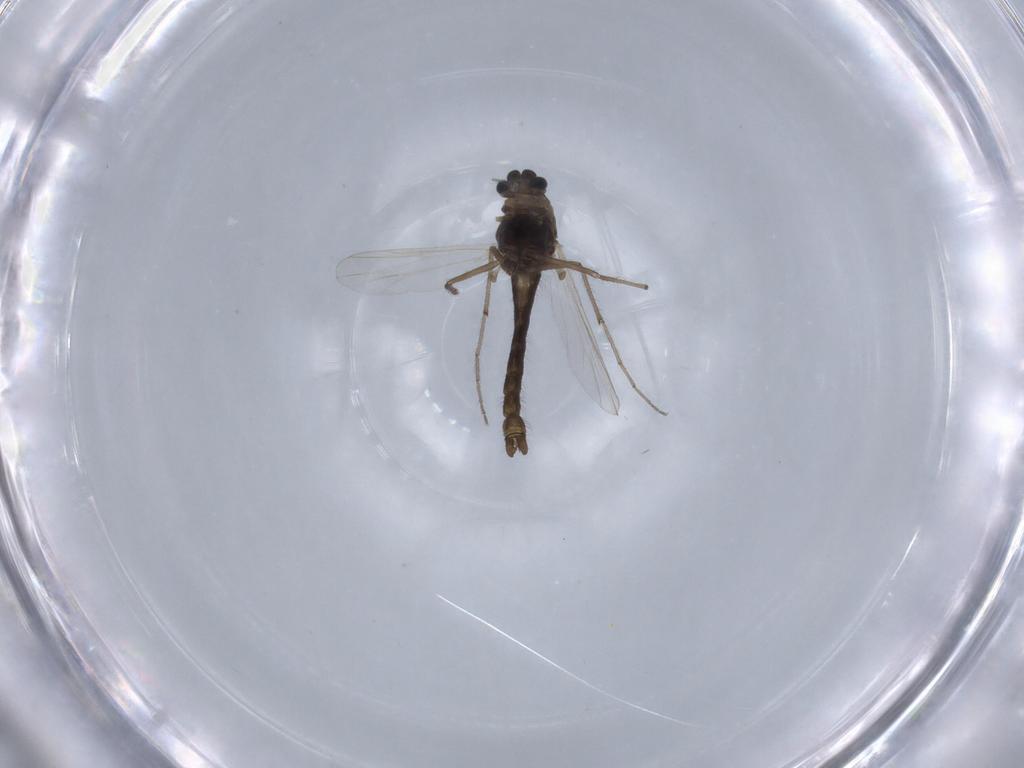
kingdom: Animalia
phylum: Arthropoda
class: Insecta
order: Diptera
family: Chironomidae
